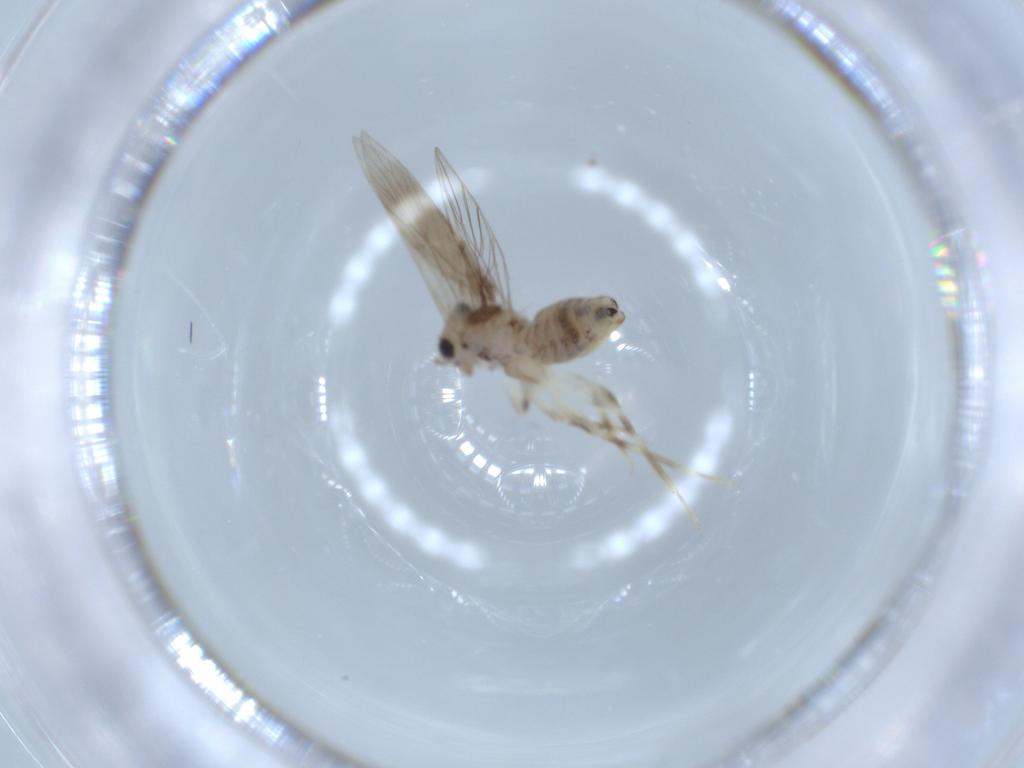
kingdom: Animalia
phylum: Arthropoda
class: Insecta
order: Psocodea
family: Lepidopsocidae
